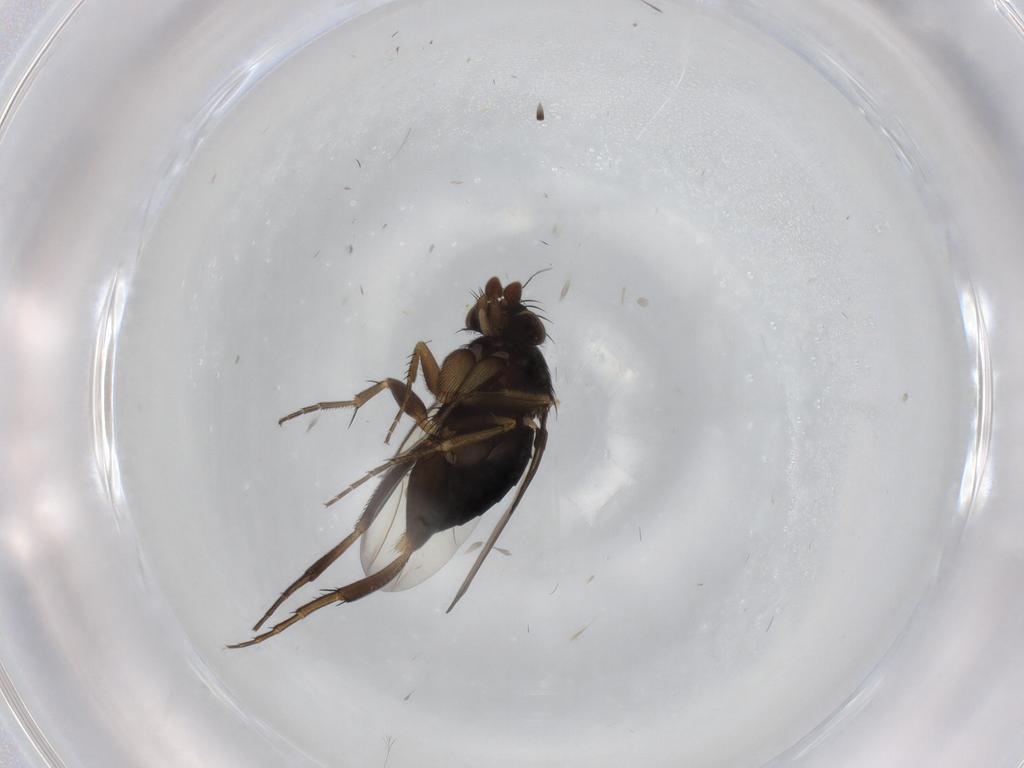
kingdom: Animalia
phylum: Arthropoda
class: Insecta
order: Diptera
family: Phoridae
